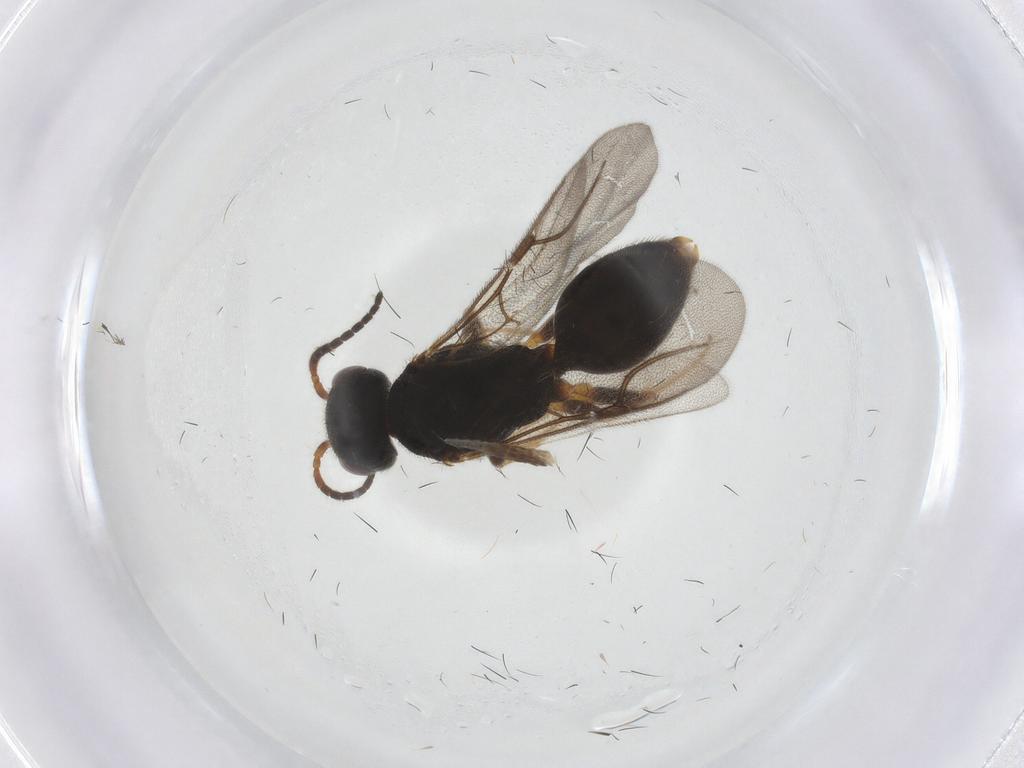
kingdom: Animalia
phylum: Arthropoda
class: Insecta
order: Hymenoptera
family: Bethylidae
